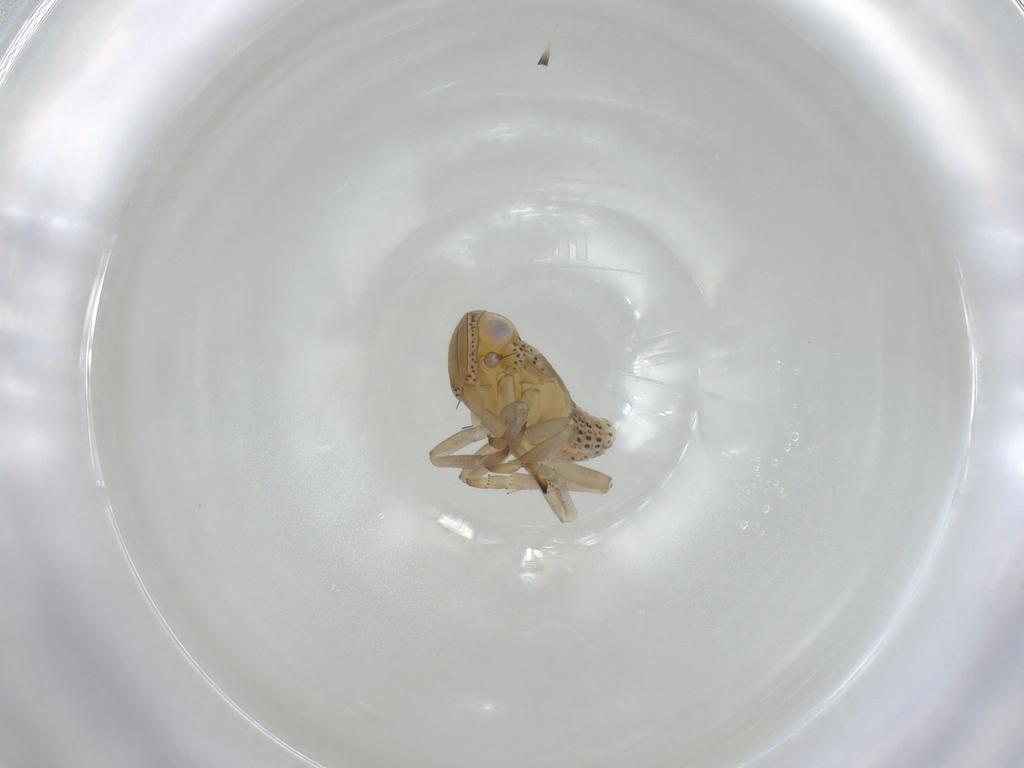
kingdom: Animalia
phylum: Arthropoda
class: Insecta
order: Hemiptera
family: Tropiduchidae
